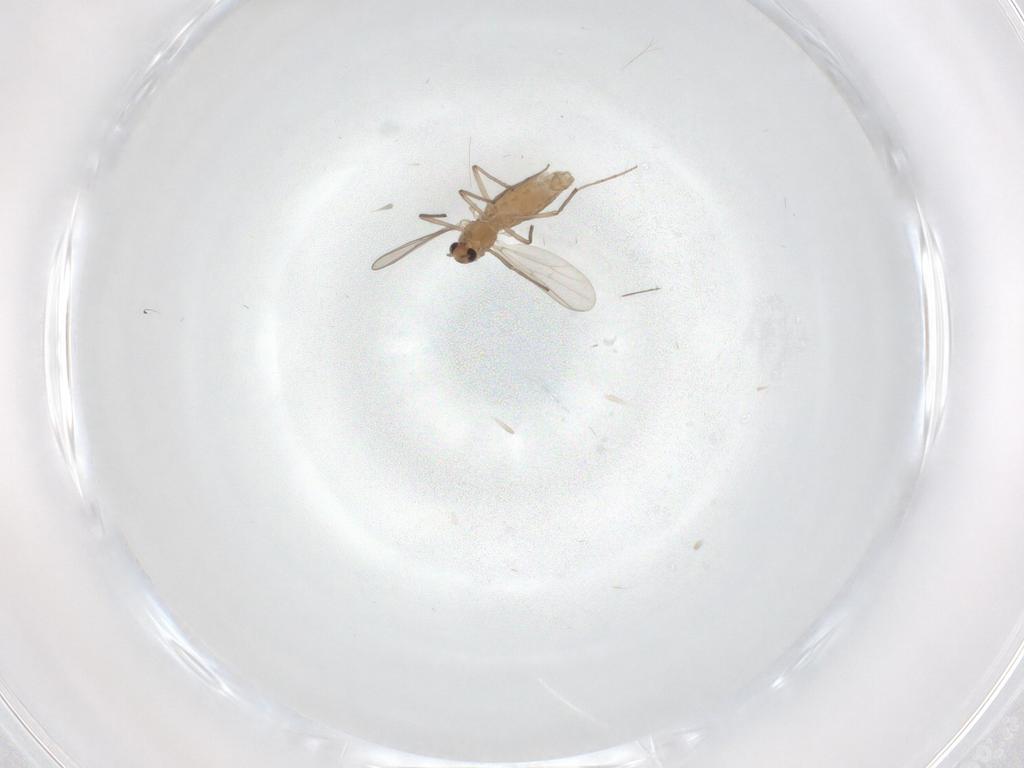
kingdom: Animalia
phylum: Arthropoda
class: Insecta
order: Diptera
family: Chironomidae
